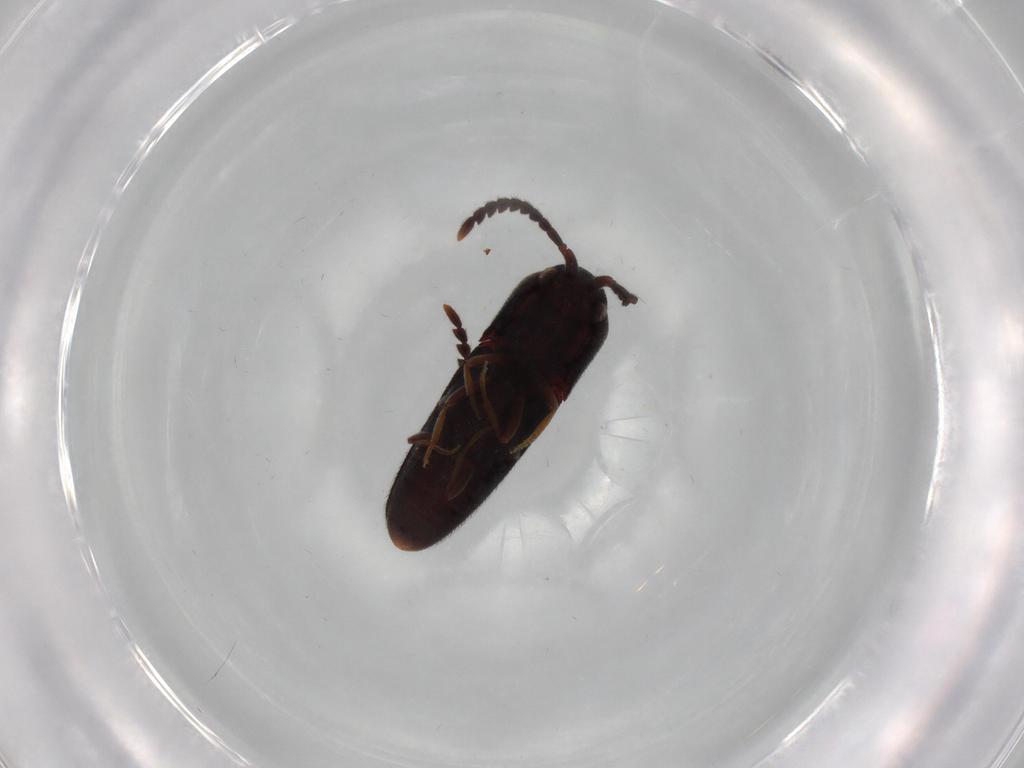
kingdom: Animalia
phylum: Arthropoda
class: Insecta
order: Coleoptera
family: Eucnemidae
